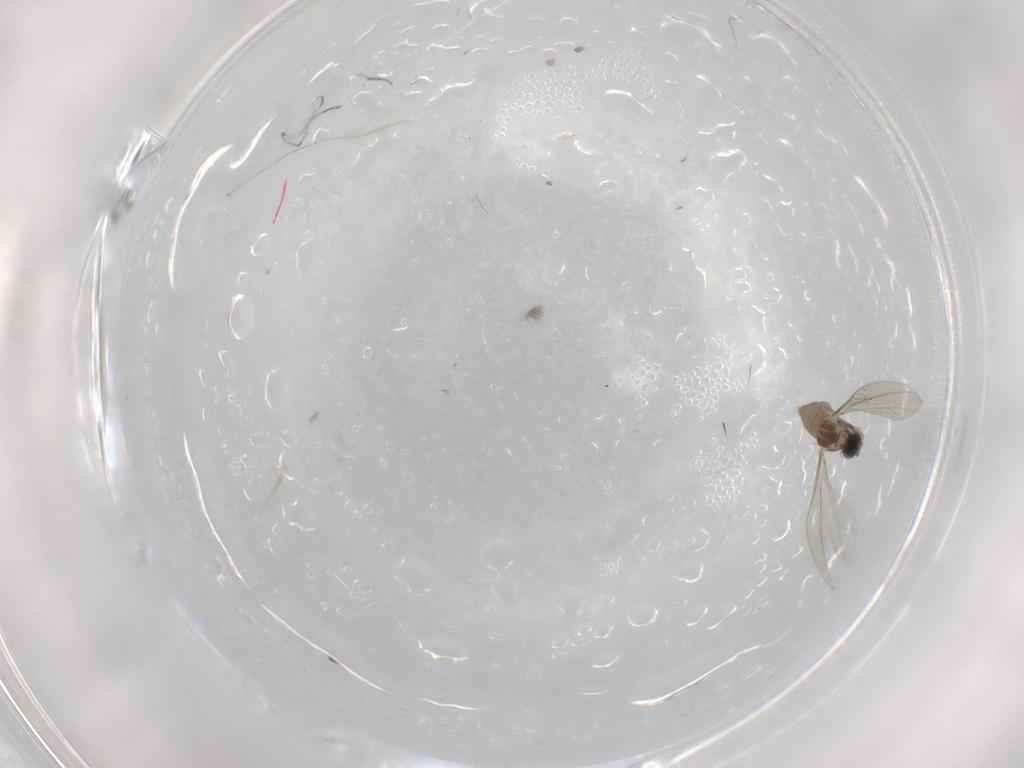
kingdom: Animalia
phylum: Arthropoda
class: Insecta
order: Diptera
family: Corethrellidae
